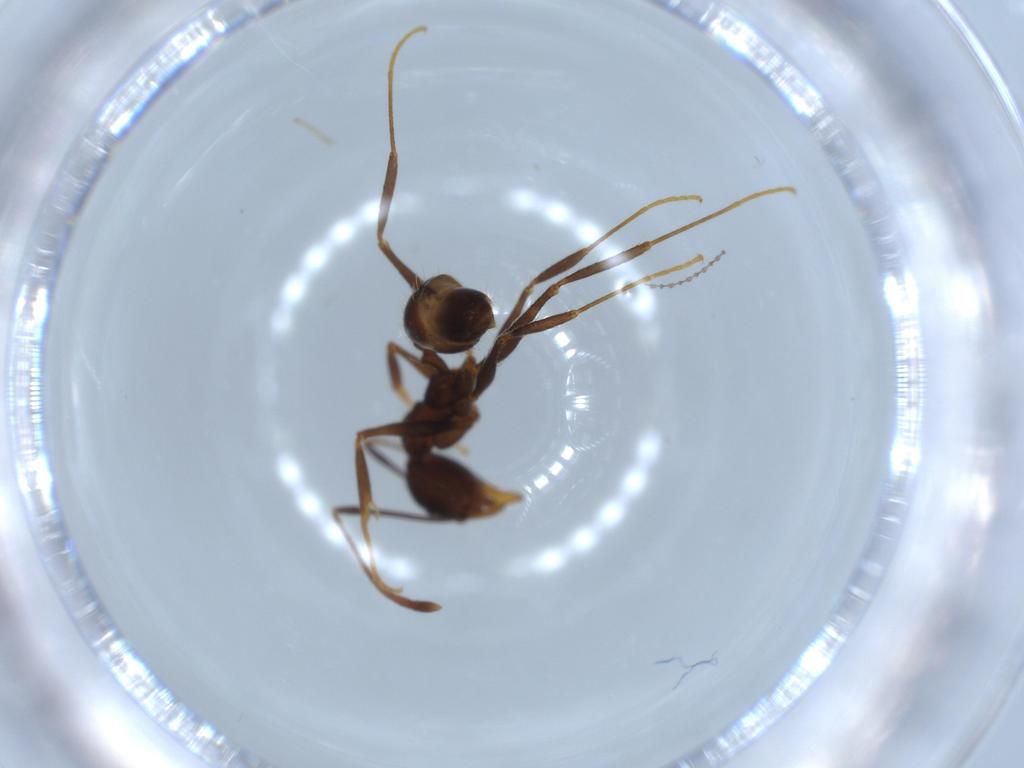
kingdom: Animalia
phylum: Arthropoda
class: Insecta
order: Hymenoptera
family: Formicidae
